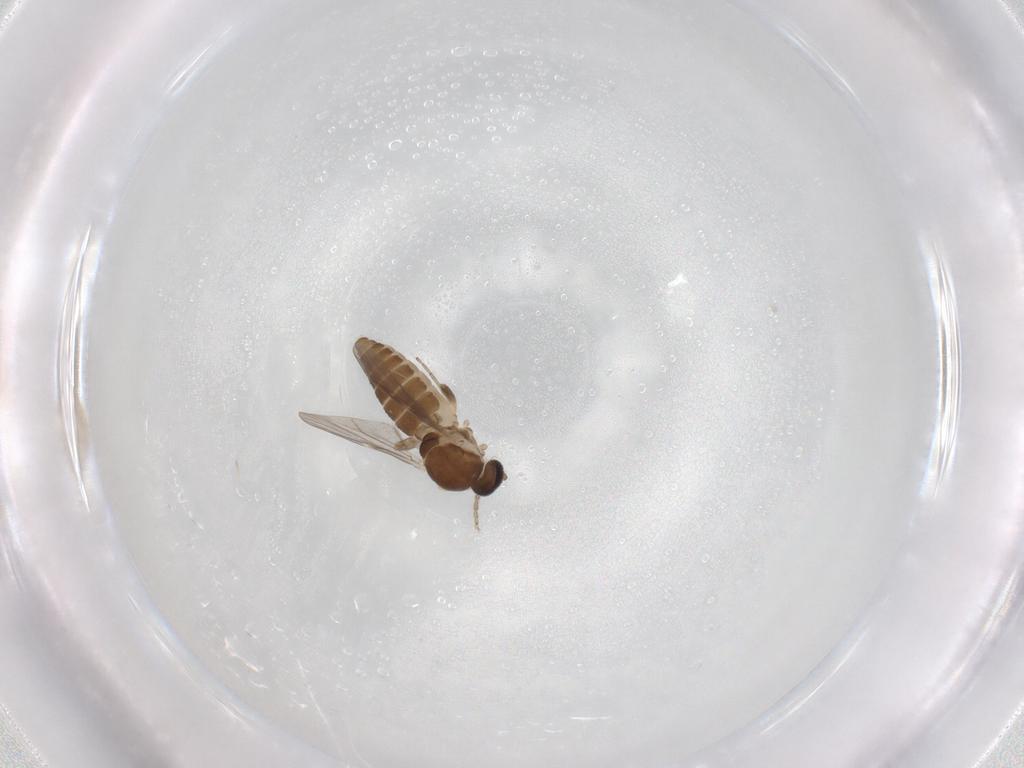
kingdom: Animalia
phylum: Arthropoda
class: Insecta
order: Diptera
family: Ceratopogonidae
